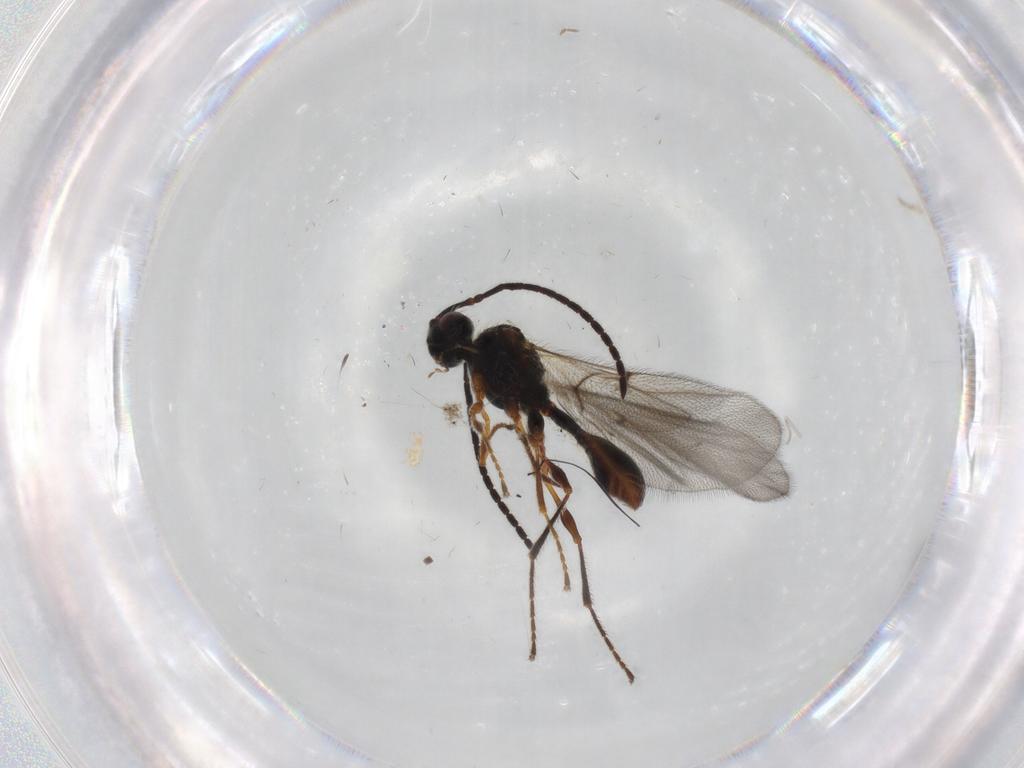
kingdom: Animalia
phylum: Arthropoda
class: Insecta
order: Hymenoptera
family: Diapriidae
